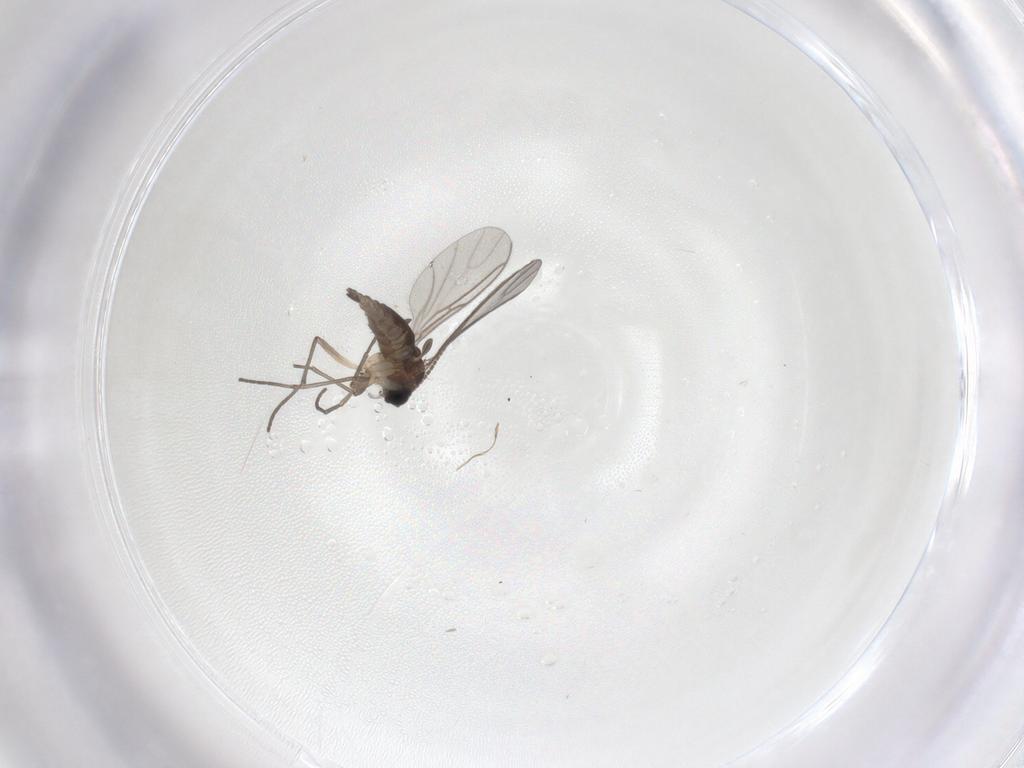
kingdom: Animalia
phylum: Arthropoda
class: Insecta
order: Diptera
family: Sciaridae
